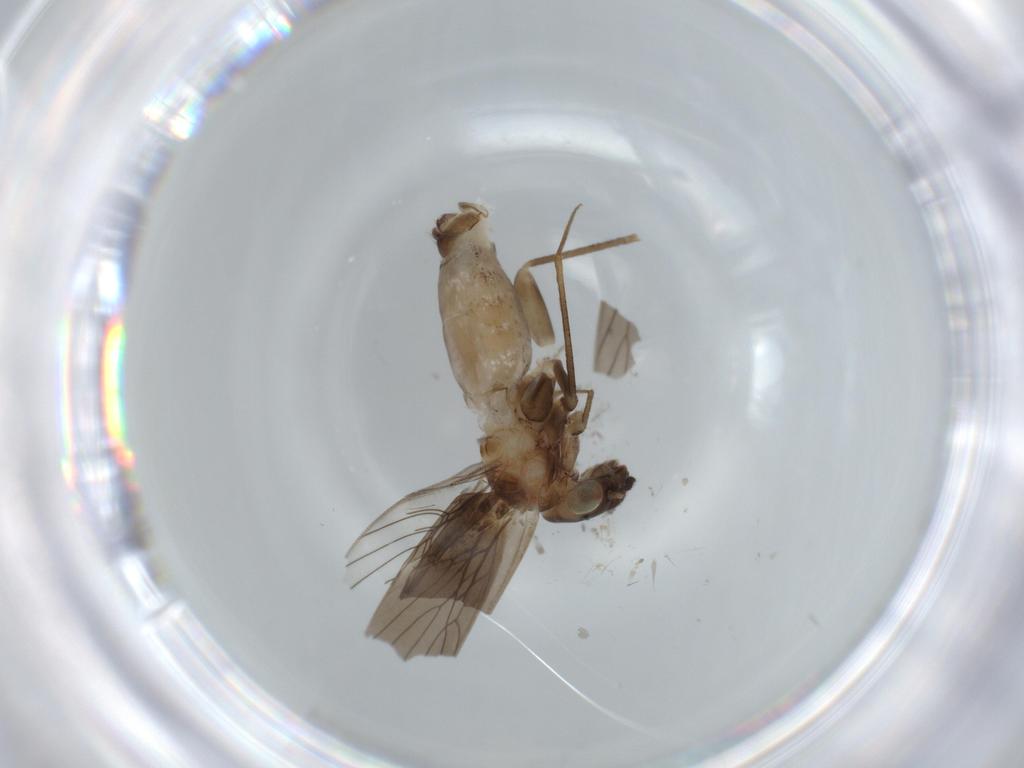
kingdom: Animalia
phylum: Arthropoda
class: Insecta
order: Psocodea
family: Lepidopsocidae
